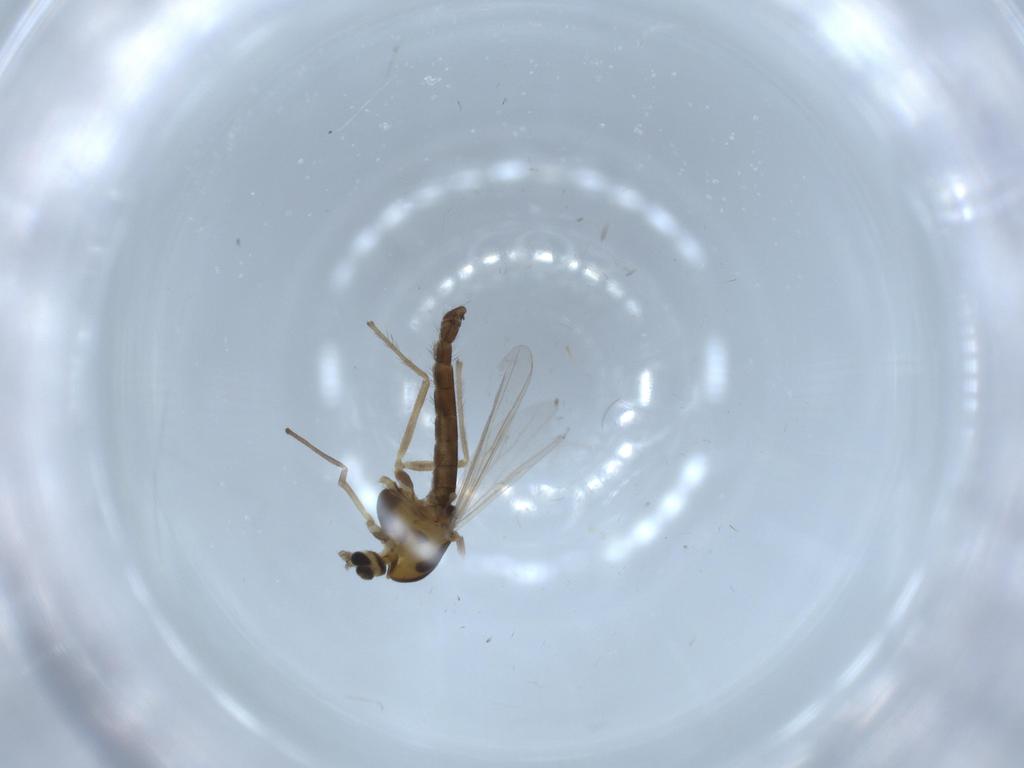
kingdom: Animalia
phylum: Arthropoda
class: Insecta
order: Diptera
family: Chironomidae
